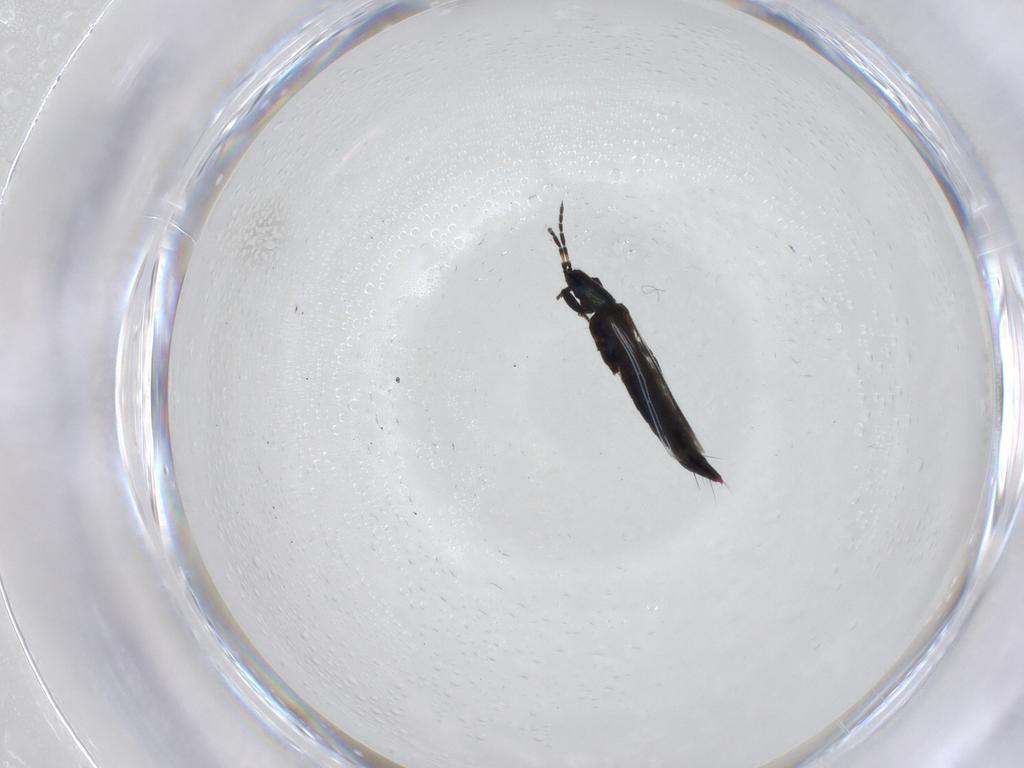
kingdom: Animalia
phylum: Arthropoda
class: Insecta
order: Thysanoptera
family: Aeolothripidae
